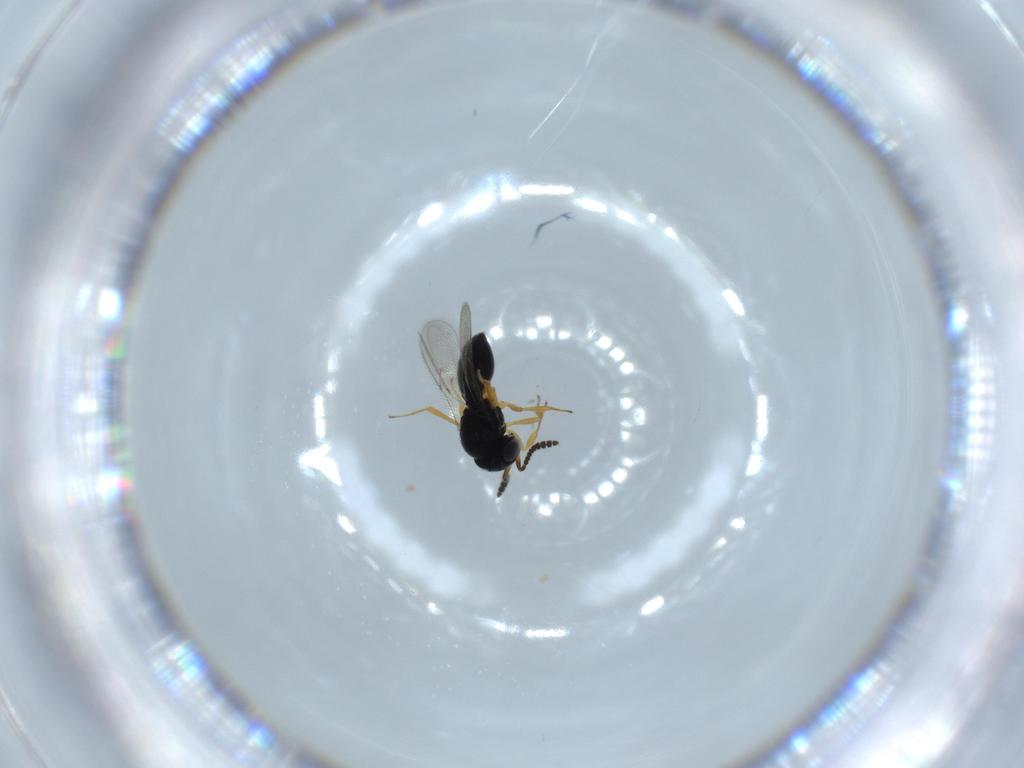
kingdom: Animalia
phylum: Arthropoda
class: Insecta
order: Hymenoptera
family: Scelionidae
